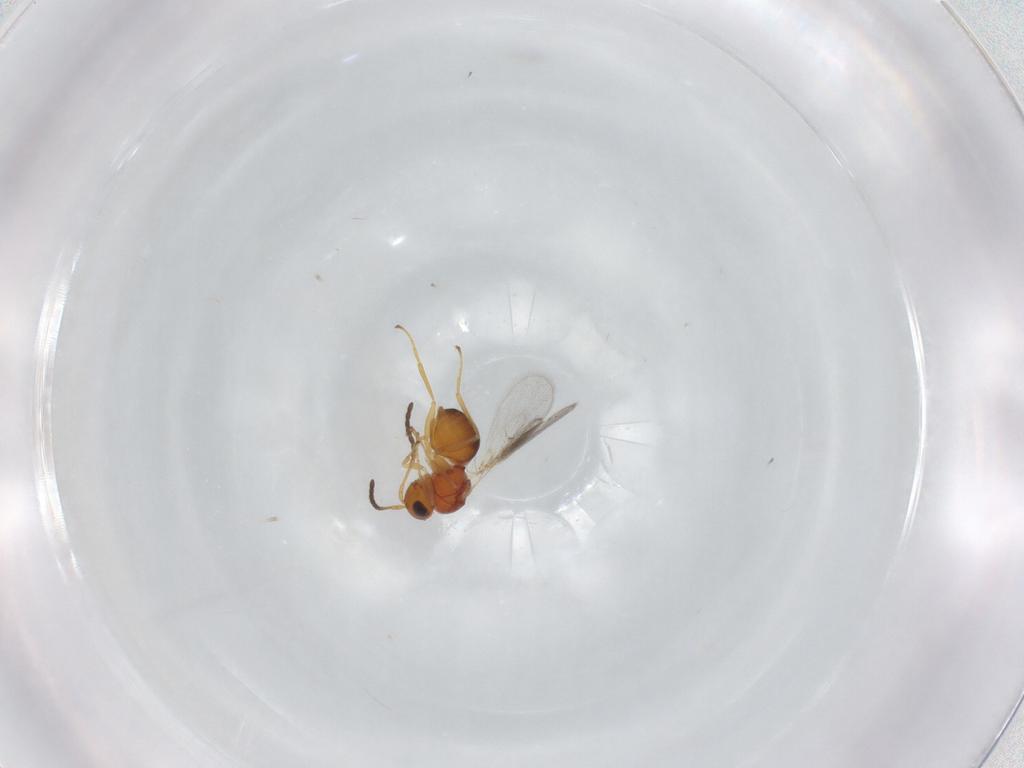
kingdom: Animalia
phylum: Arthropoda
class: Insecta
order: Hymenoptera
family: Figitidae
